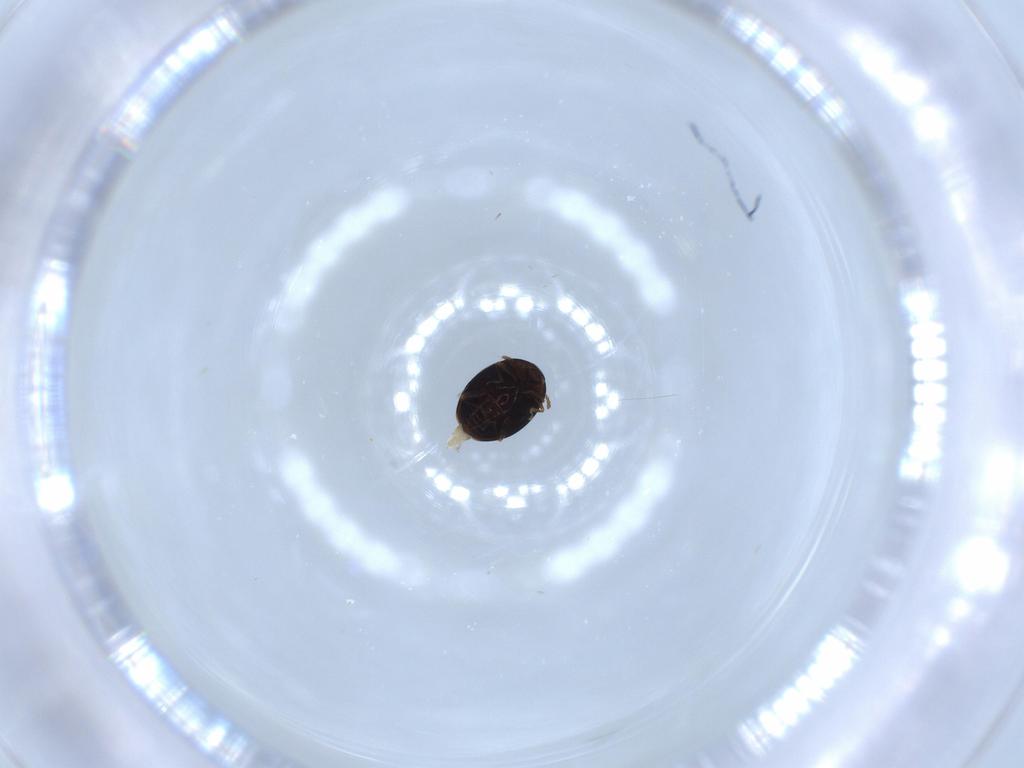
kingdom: Animalia
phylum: Arthropoda
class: Insecta
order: Coleoptera
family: Corylophidae
